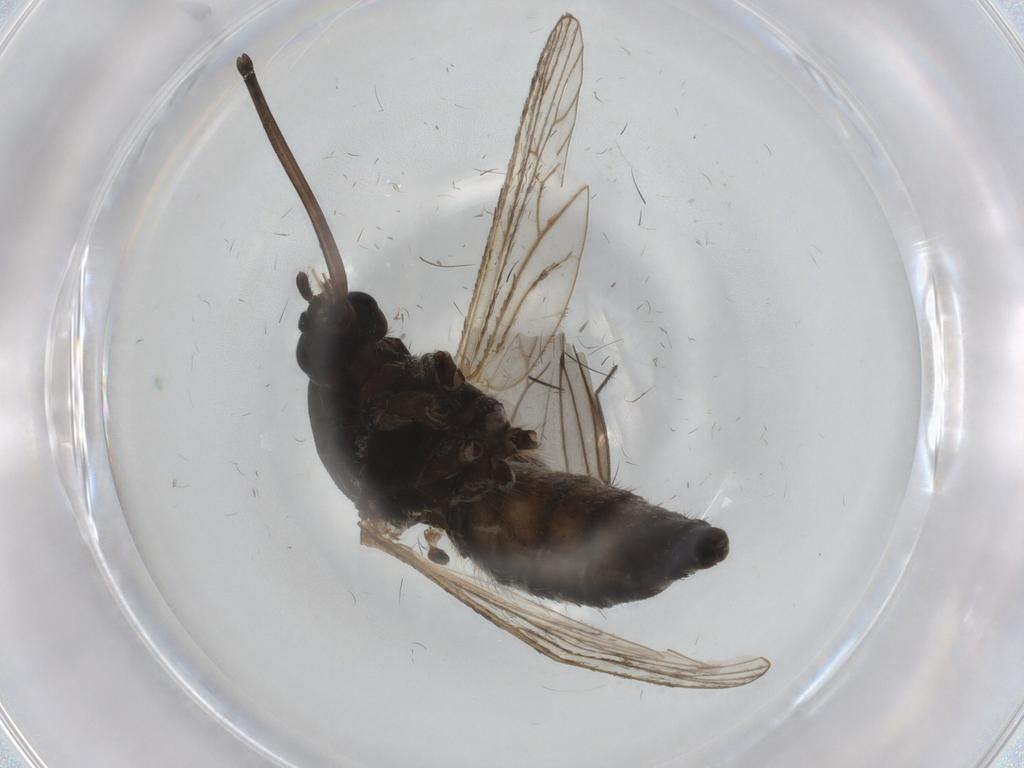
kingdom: Animalia
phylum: Arthropoda
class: Insecta
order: Diptera
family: Sciaridae
